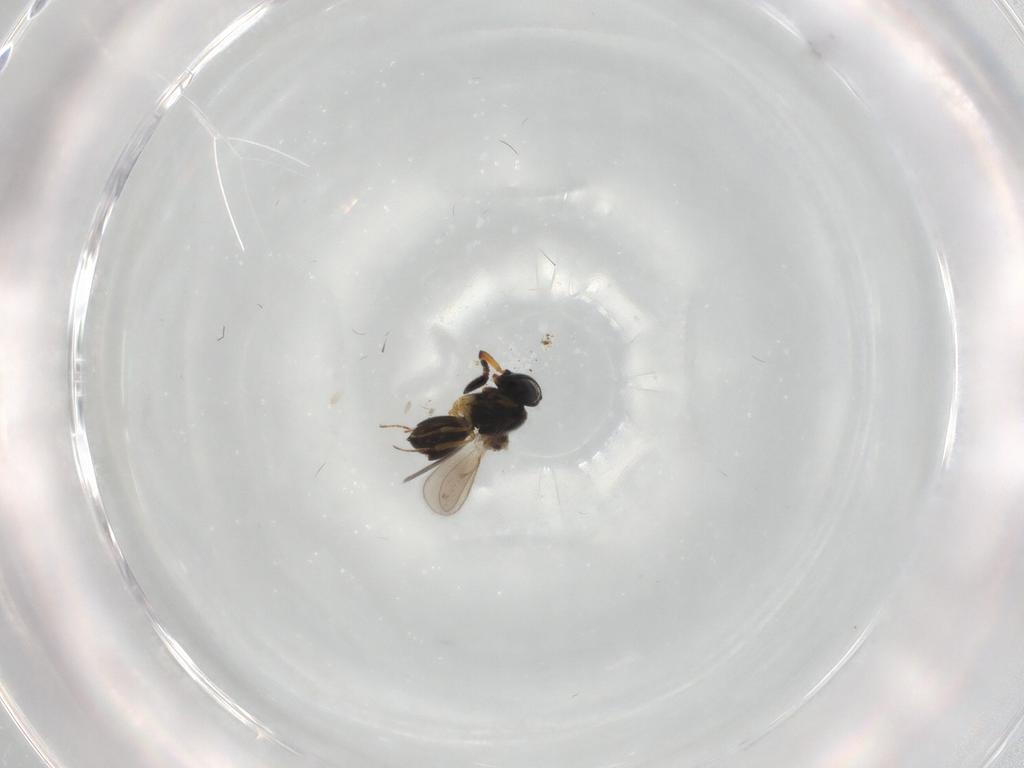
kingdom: Animalia
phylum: Arthropoda
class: Insecta
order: Hymenoptera
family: Scelionidae
